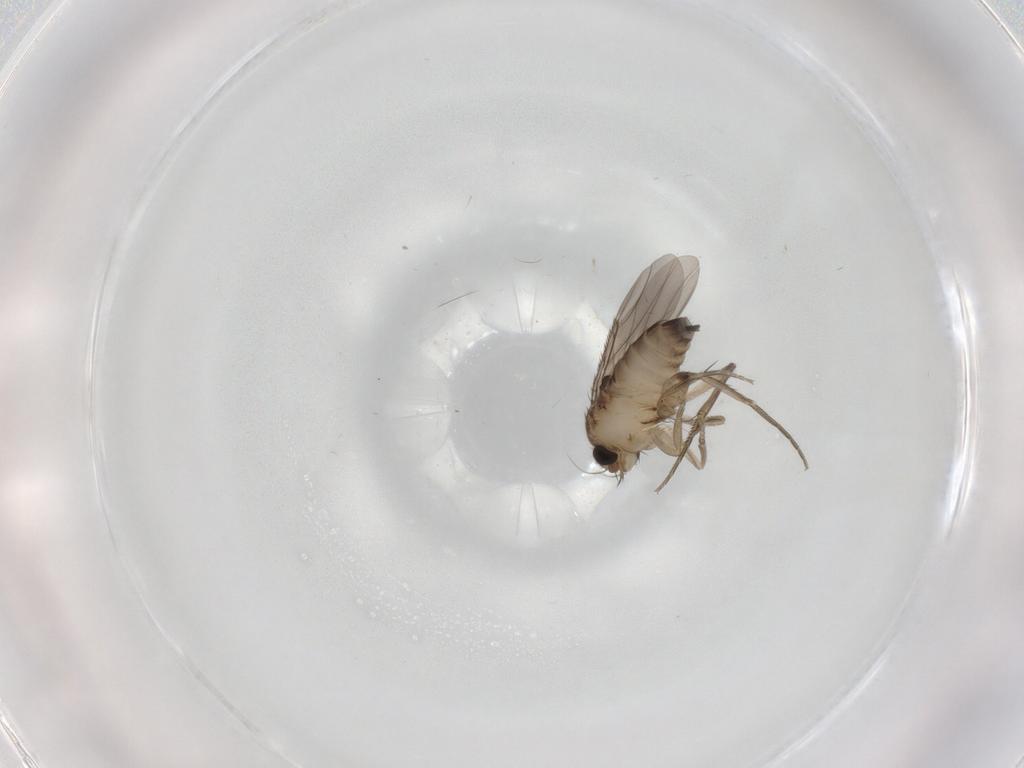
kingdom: Animalia
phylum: Arthropoda
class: Insecta
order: Diptera
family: Phoridae
